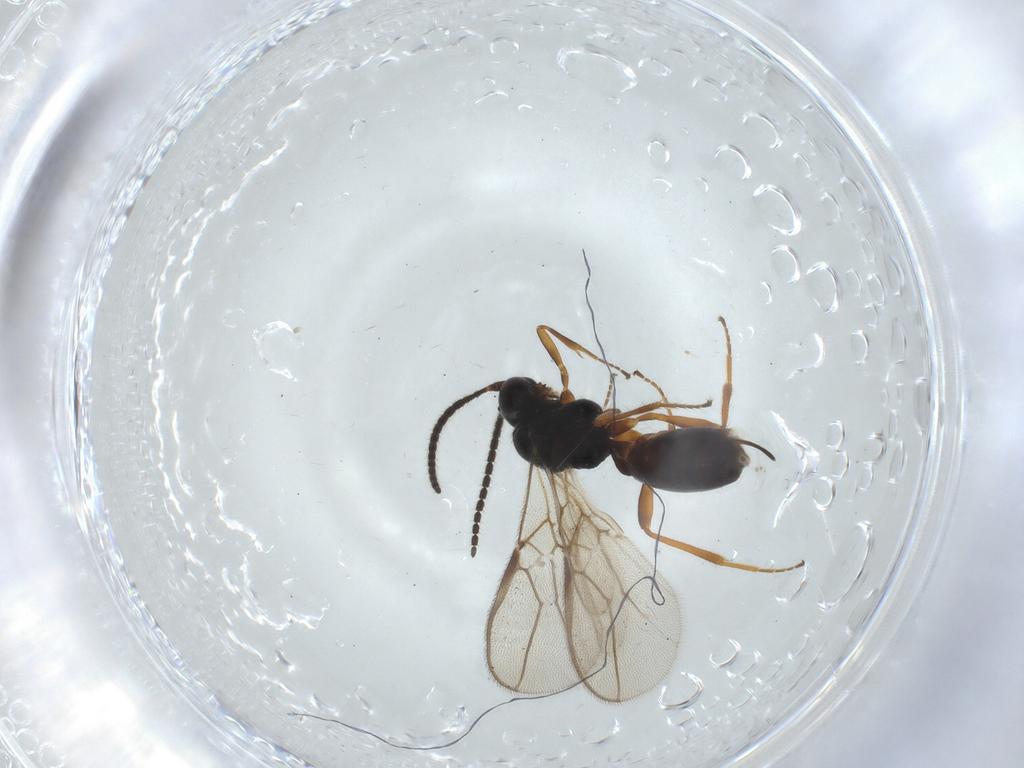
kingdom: Animalia
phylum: Arthropoda
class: Insecta
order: Hymenoptera
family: Braconidae
